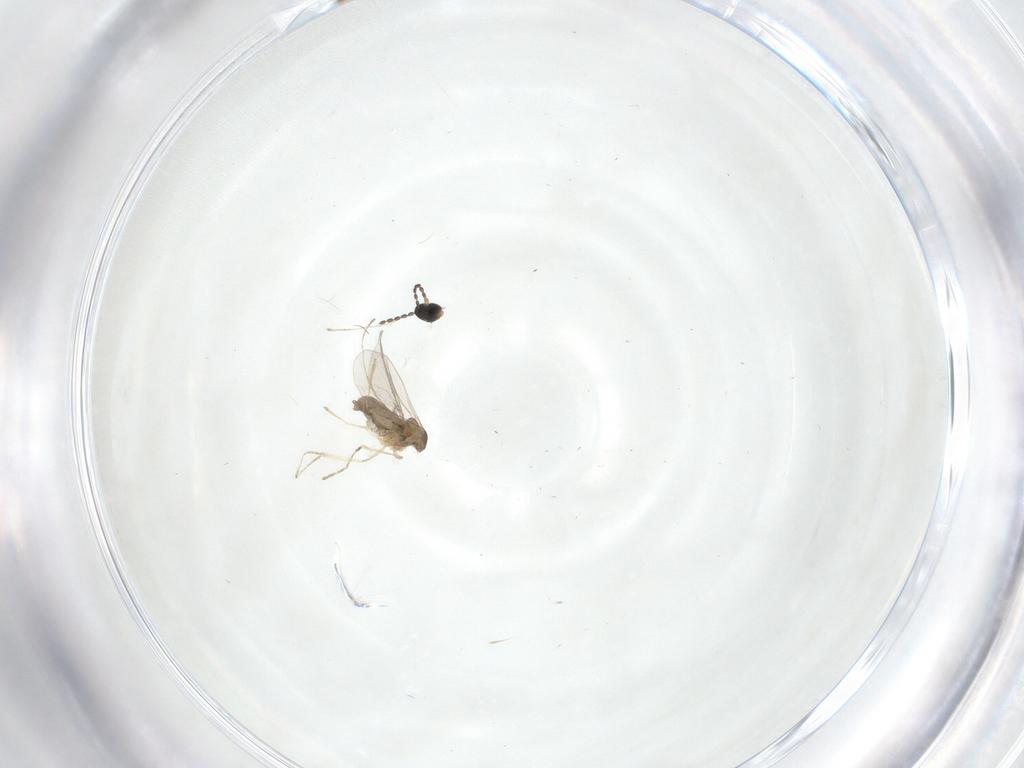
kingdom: Animalia
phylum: Arthropoda
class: Insecta
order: Diptera
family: Cecidomyiidae
